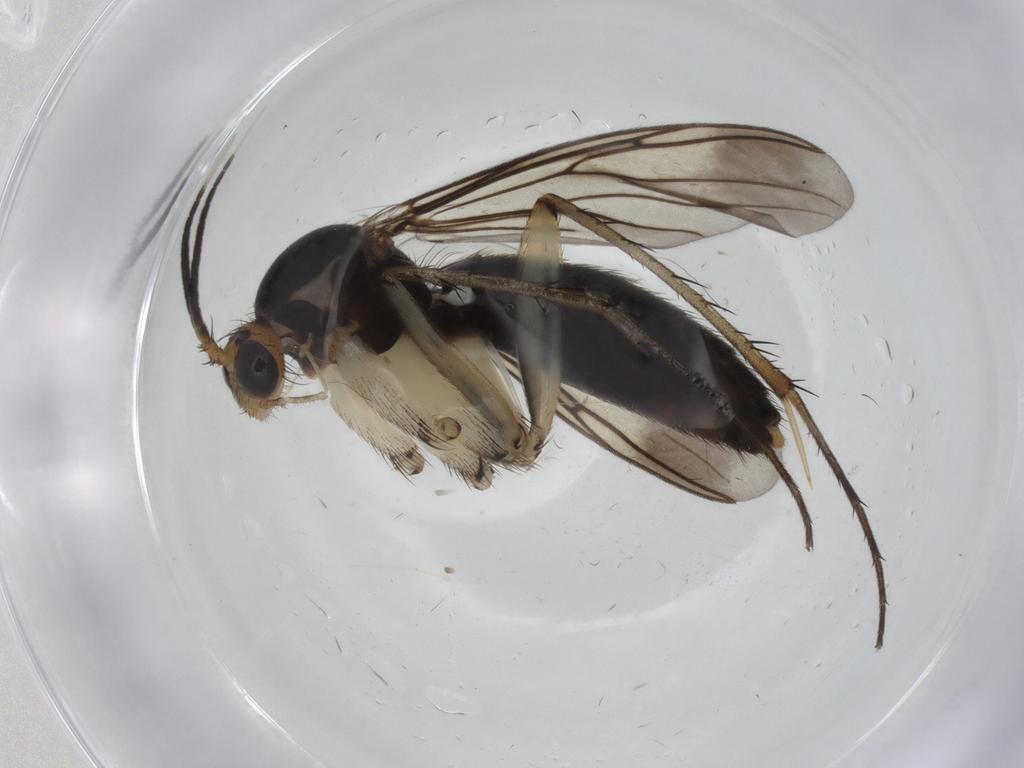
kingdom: Animalia
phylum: Arthropoda
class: Insecta
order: Diptera
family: Mycetophilidae
